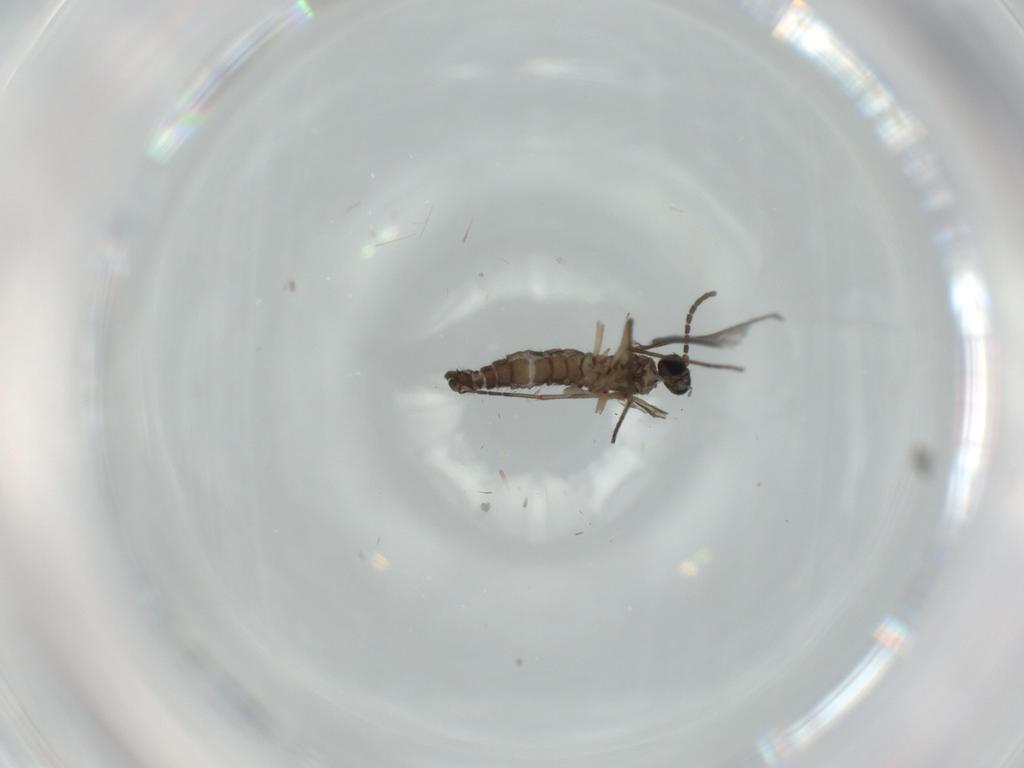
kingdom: Animalia
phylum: Arthropoda
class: Insecta
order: Diptera
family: Sciaridae
